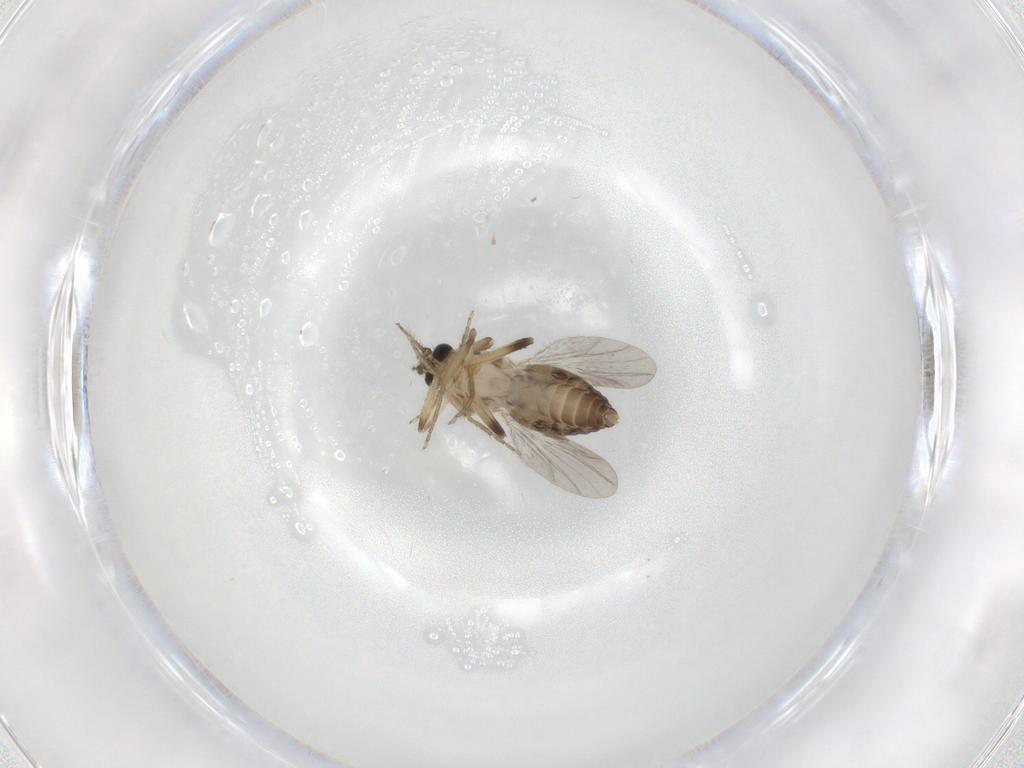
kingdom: Animalia
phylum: Arthropoda
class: Insecta
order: Diptera
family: Ceratopogonidae
